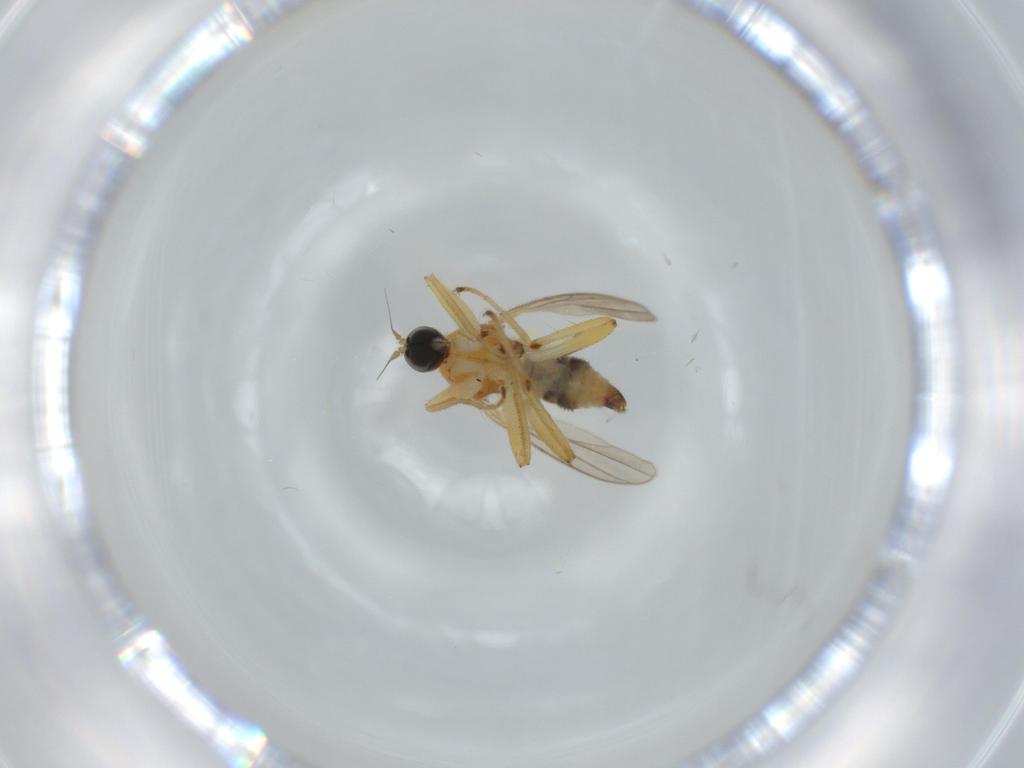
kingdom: Animalia
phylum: Arthropoda
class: Insecta
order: Diptera
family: Hybotidae
